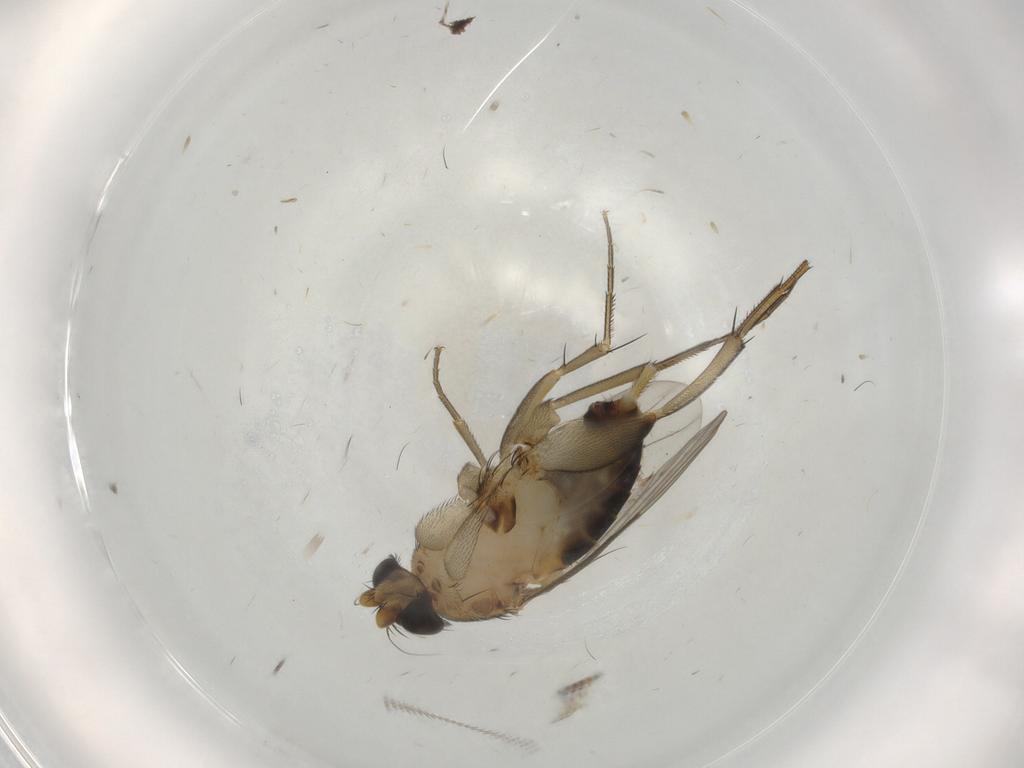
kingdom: Animalia
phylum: Arthropoda
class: Insecta
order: Diptera
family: Phoridae
